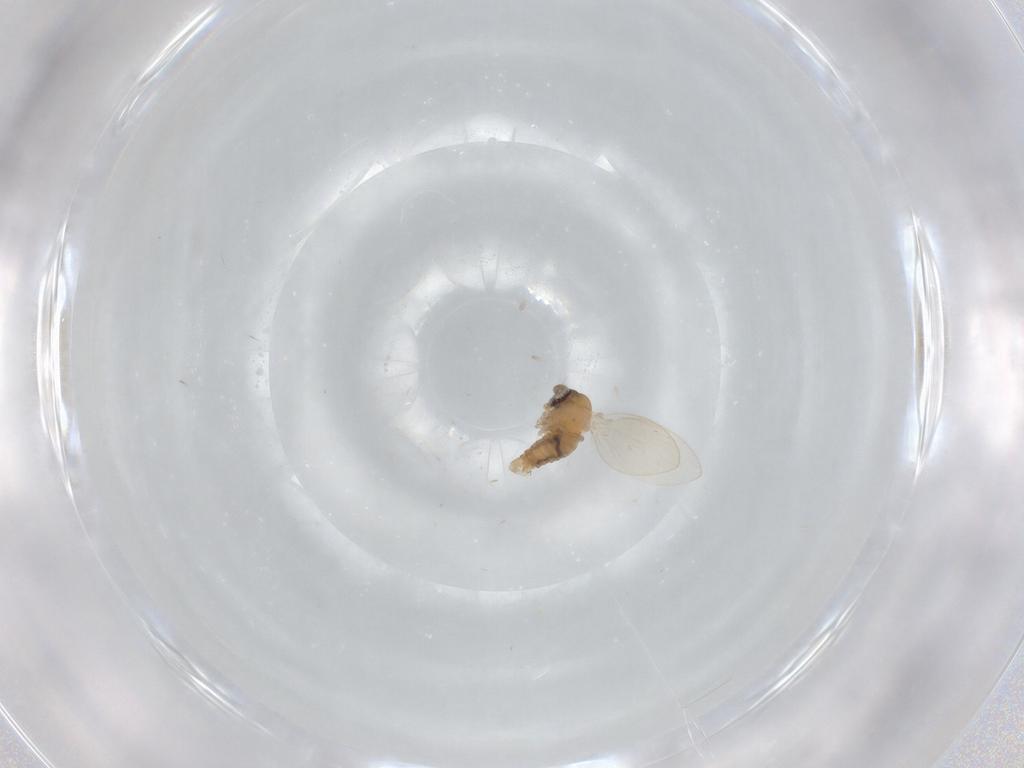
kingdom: Animalia
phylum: Arthropoda
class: Insecta
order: Diptera
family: Psychodidae
